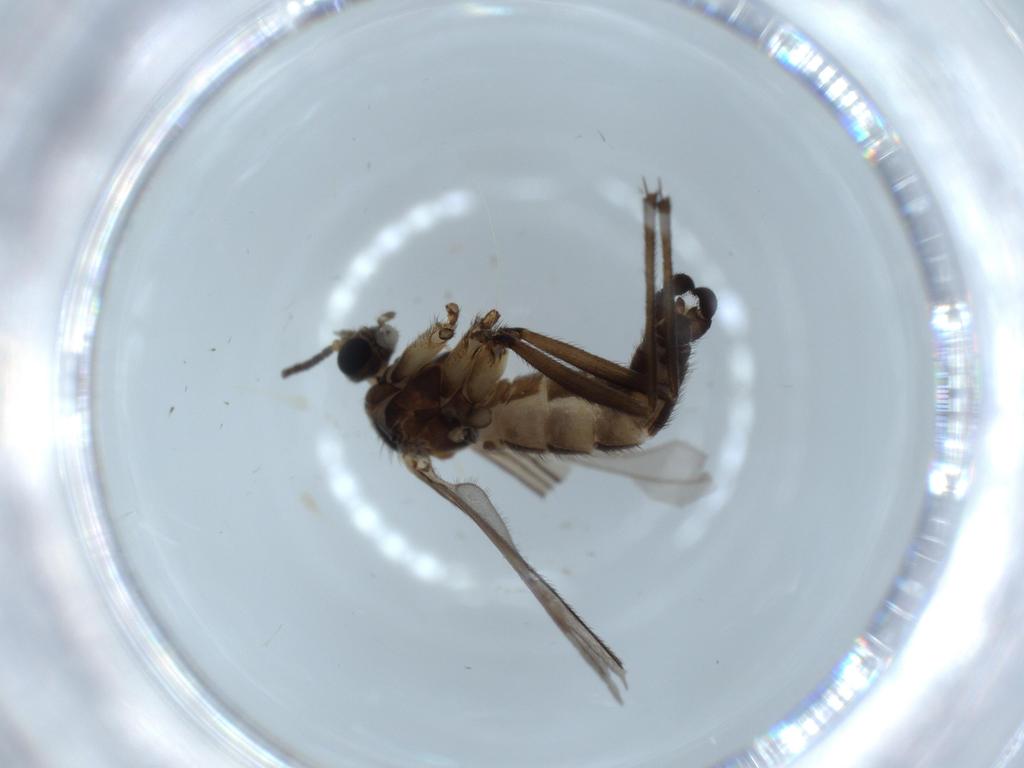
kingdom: Animalia
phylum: Arthropoda
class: Insecta
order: Diptera
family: Sciaridae
